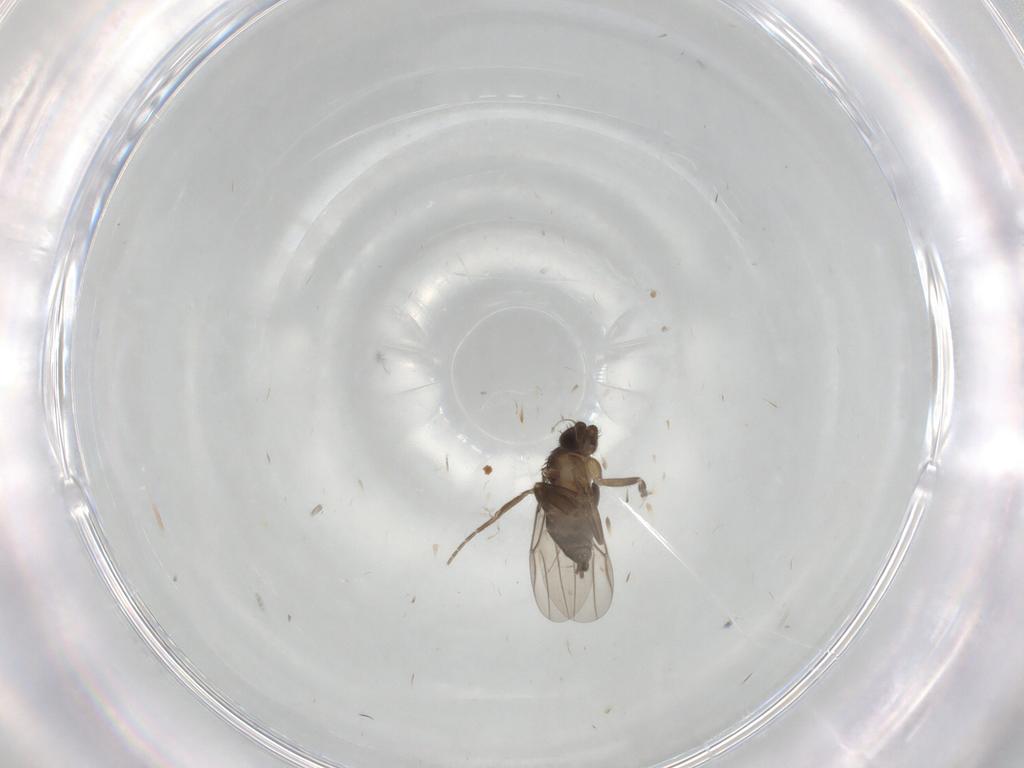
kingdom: Animalia
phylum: Arthropoda
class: Insecta
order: Diptera
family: Phoridae
